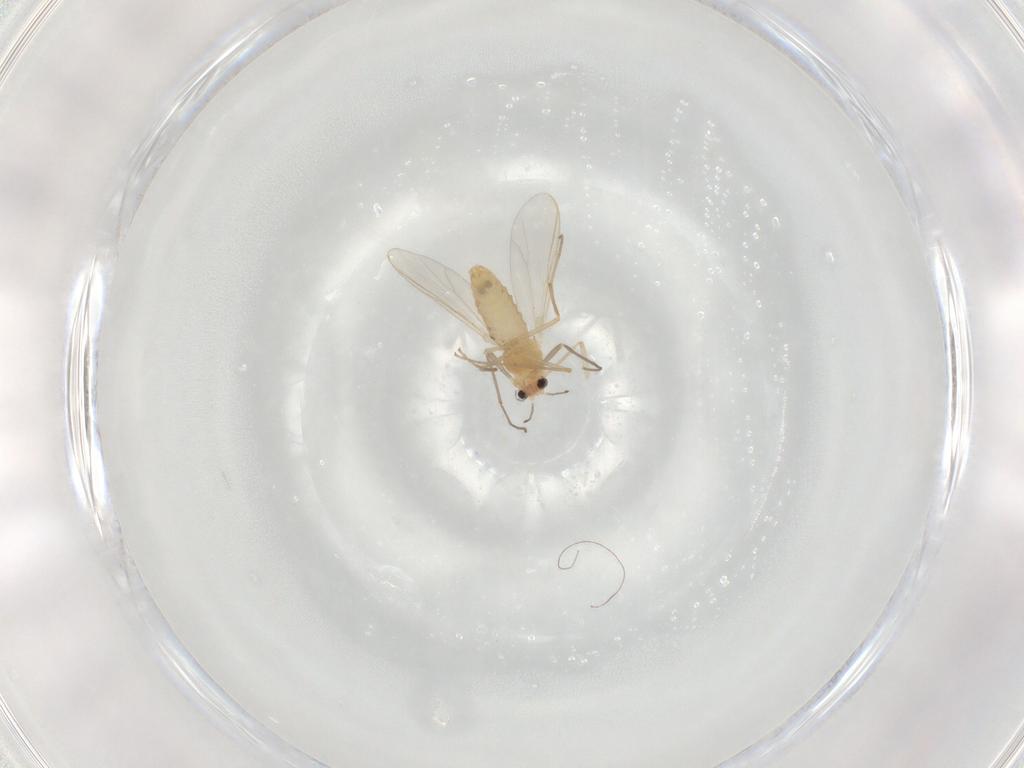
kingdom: Animalia
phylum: Arthropoda
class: Insecta
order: Diptera
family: Chironomidae
